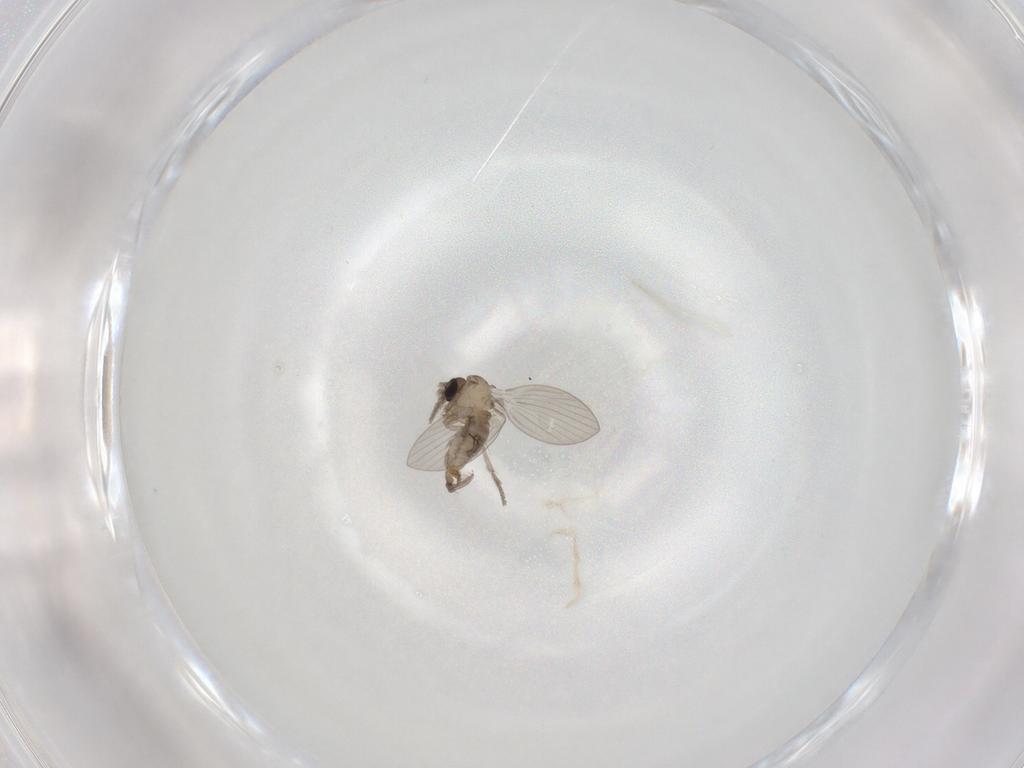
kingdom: Animalia
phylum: Arthropoda
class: Insecta
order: Diptera
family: Psychodidae
